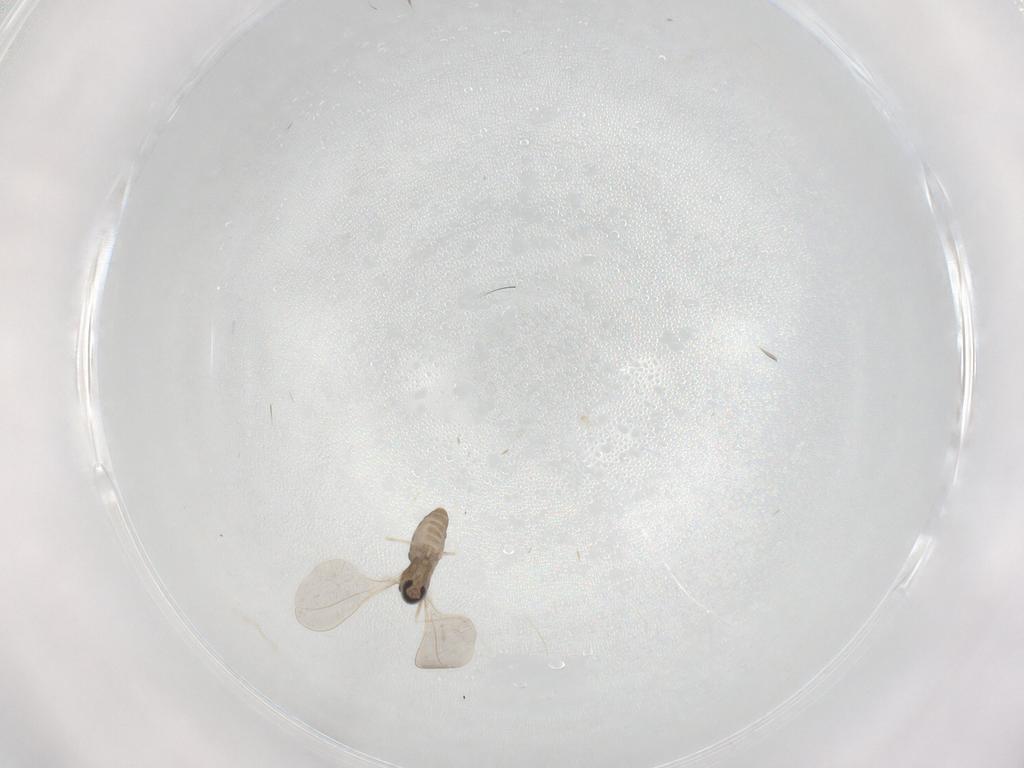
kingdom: Animalia
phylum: Arthropoda
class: Insecta
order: Diptera
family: Cecidomyiidae
